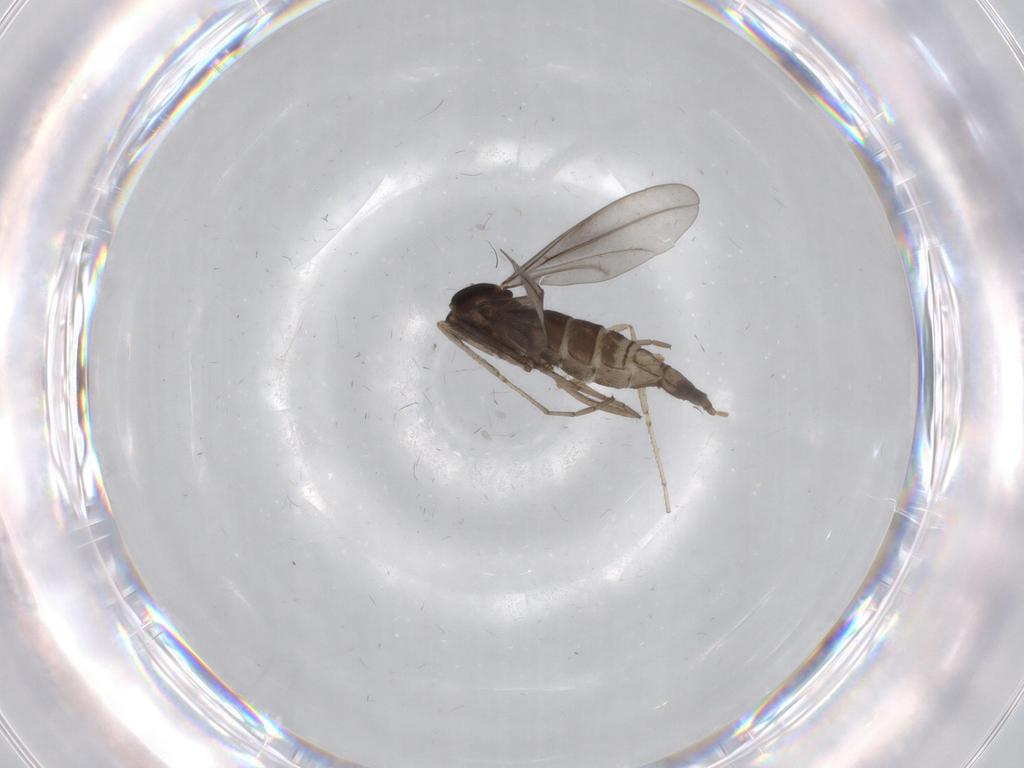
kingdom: Animalia
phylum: Arthropoda
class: Insecta
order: Diptera
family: Cecidomyiidae
